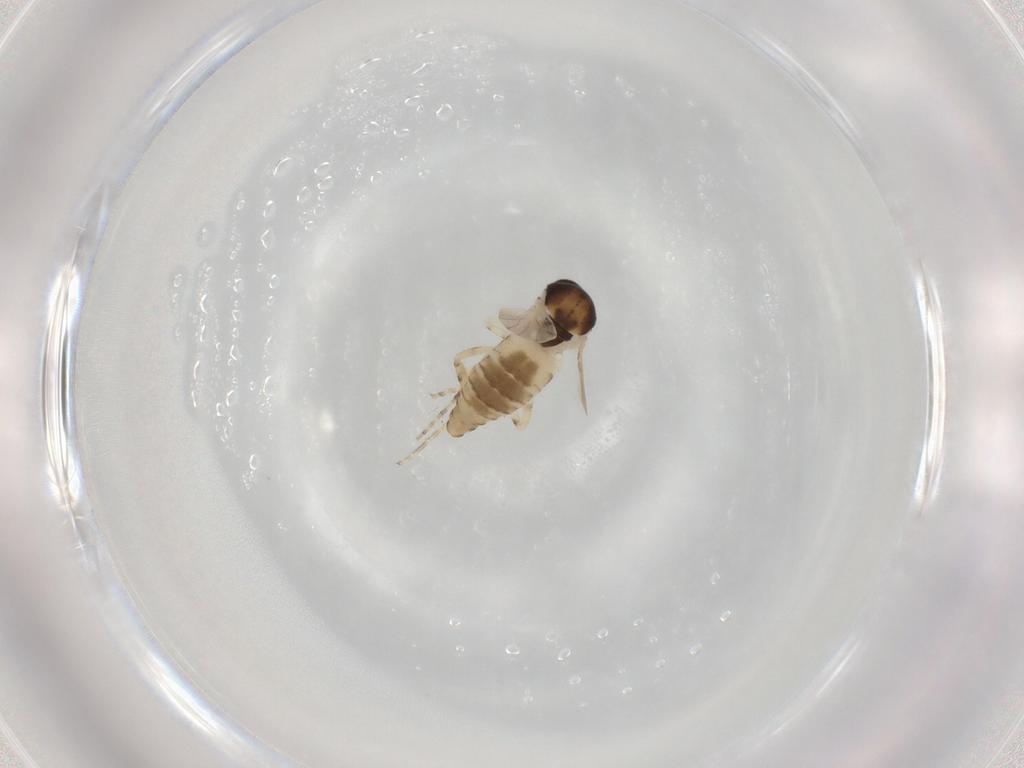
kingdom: Animalia
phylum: Arthropoda
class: Insecta
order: Diptera
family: Ceratopogonidae
